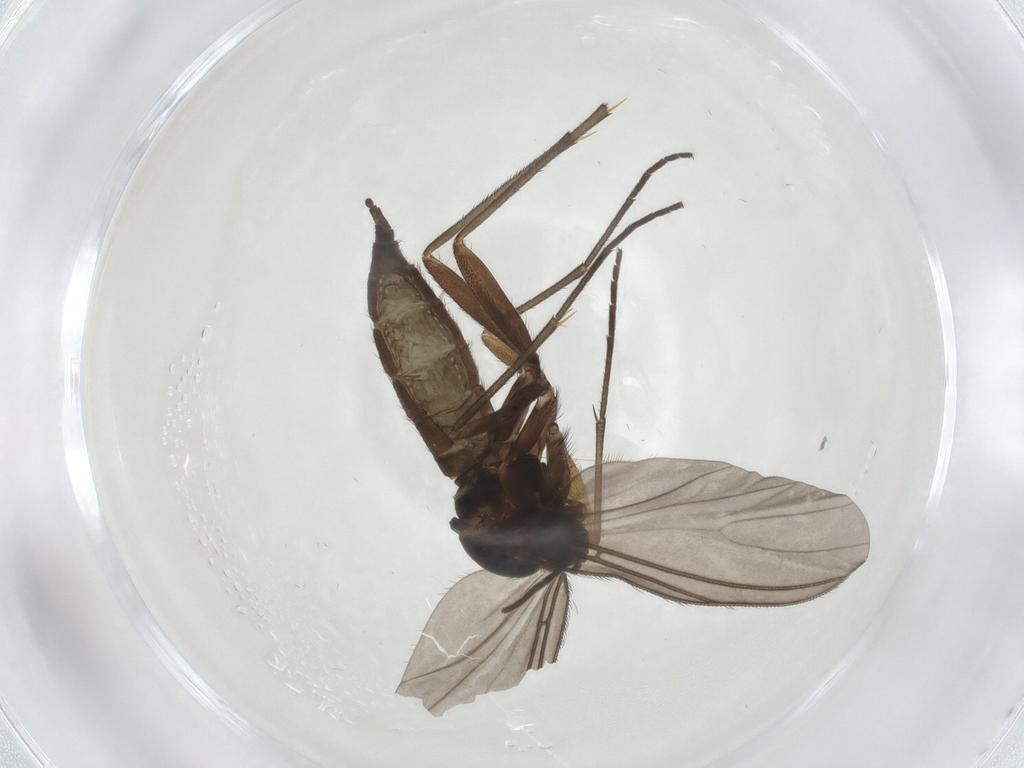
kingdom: Animalia
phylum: Arthropoda
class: Insecta
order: Diptera
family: Sciaridae
